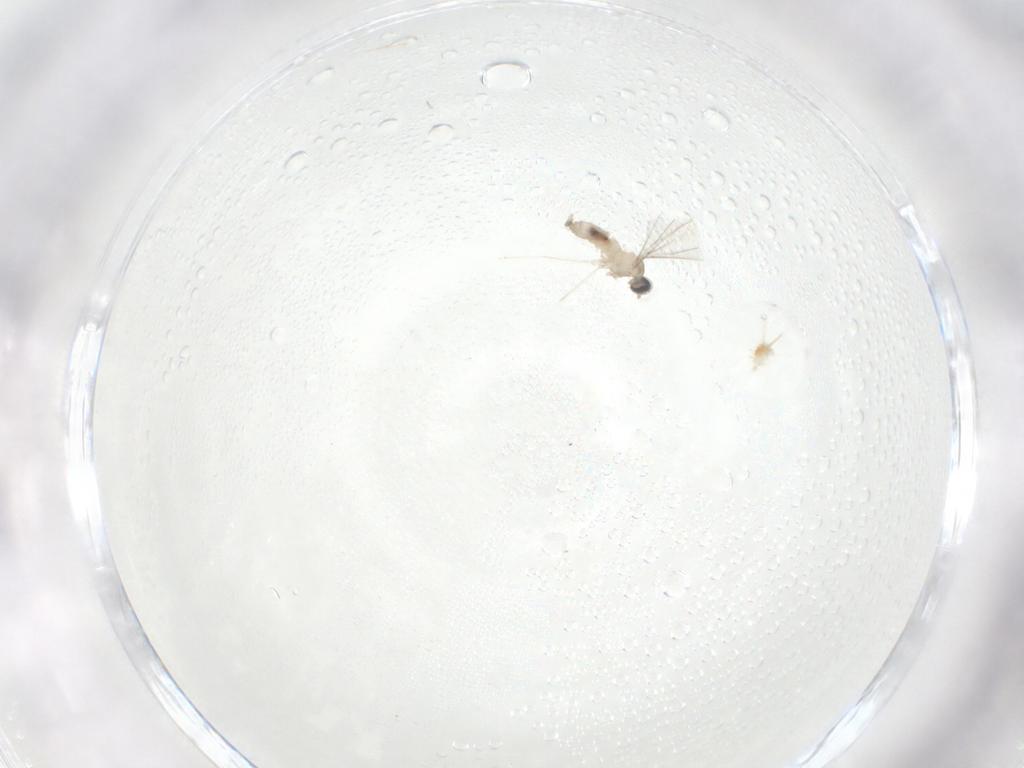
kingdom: Animalia
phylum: Arthropoda
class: Insecta
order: Diptera
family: Cecidomyiidae
